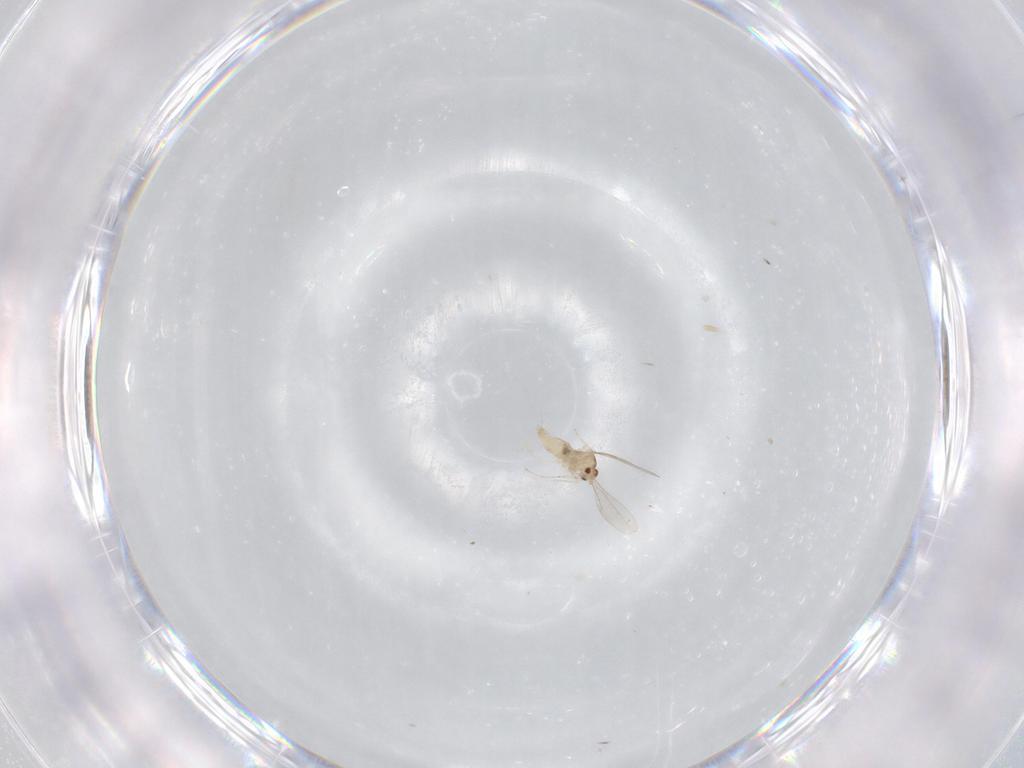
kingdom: Animalia
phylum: Arthropoda
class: Insecta
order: Diptera
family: Cecidomyiidae
